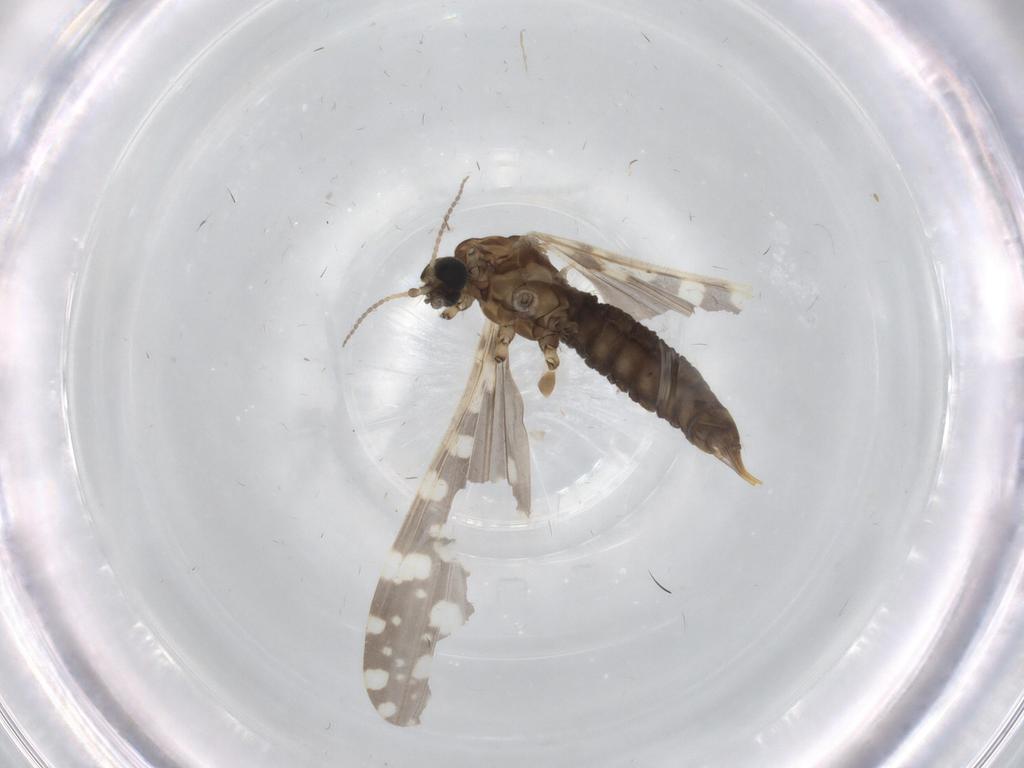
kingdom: Animalia
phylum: Arthropoda
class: Insecta
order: Diptera
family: Limoniidae
